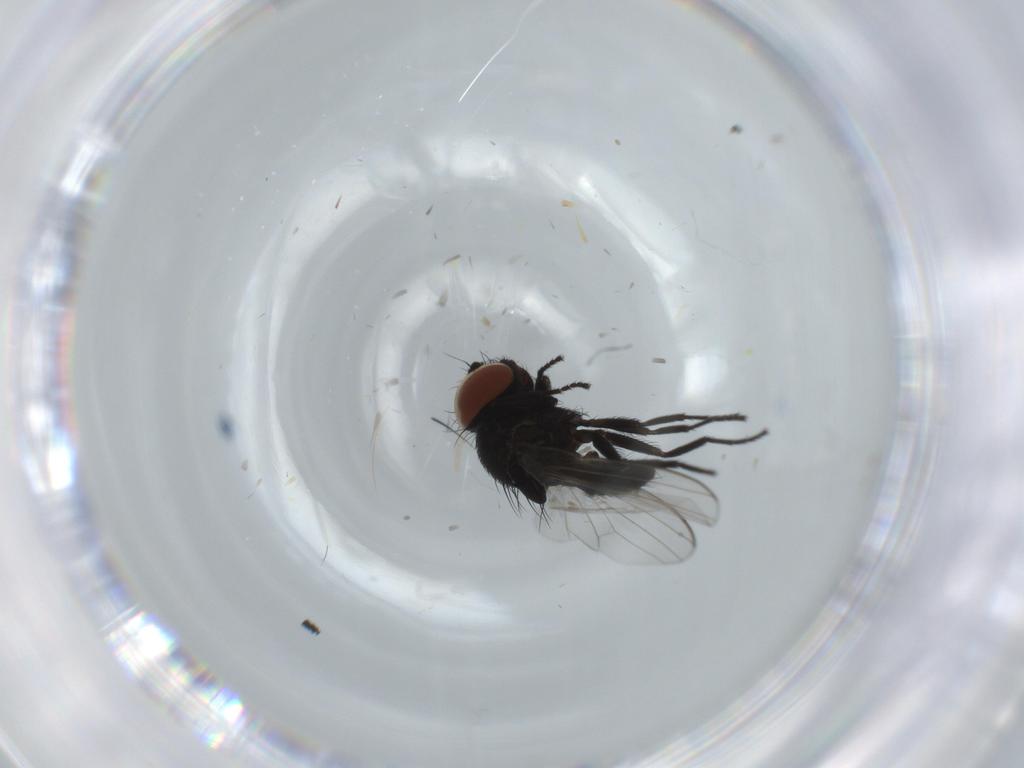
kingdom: Animalia
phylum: Arthropoda
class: Insecta
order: Diptera
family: Milichiidae
